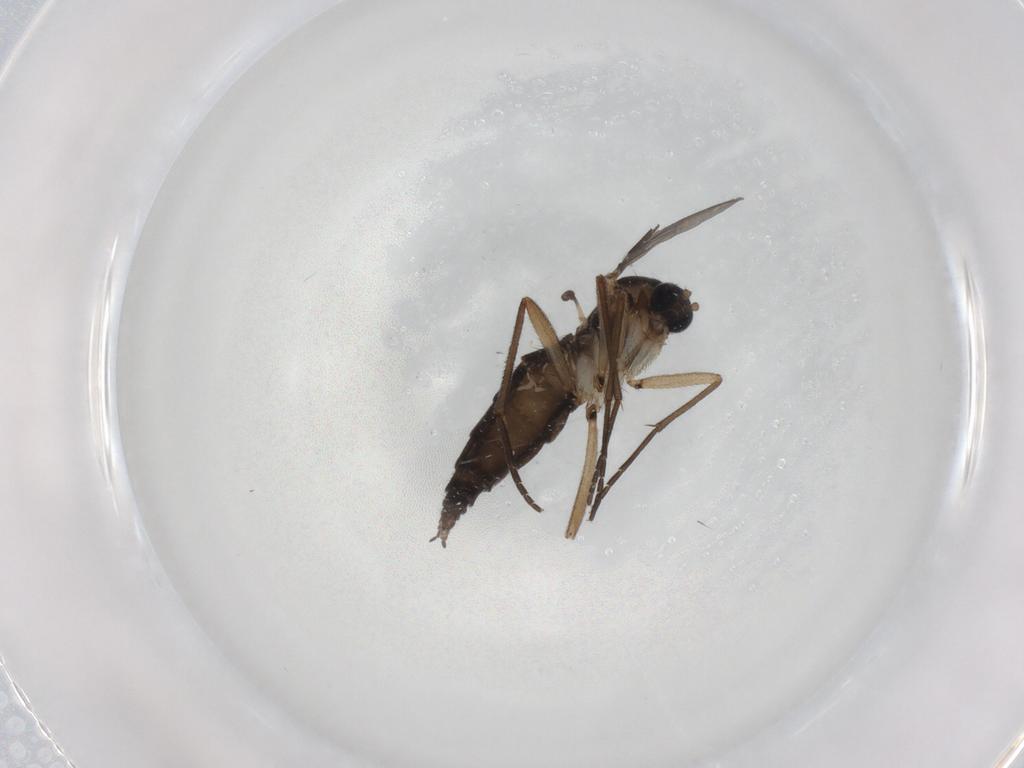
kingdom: Animalia
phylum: Arthropoda
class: Insecta
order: Diptera
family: Sciaridae
